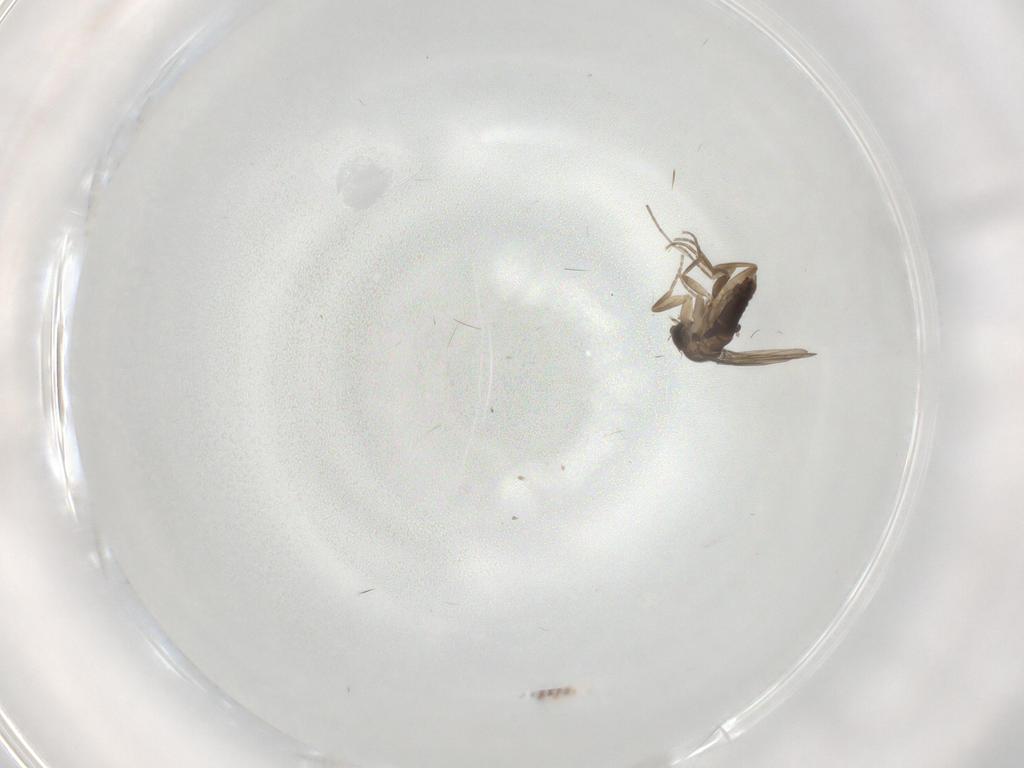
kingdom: Animalia
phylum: Arthropoda
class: Insecta
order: Diptera
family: Phoridae
